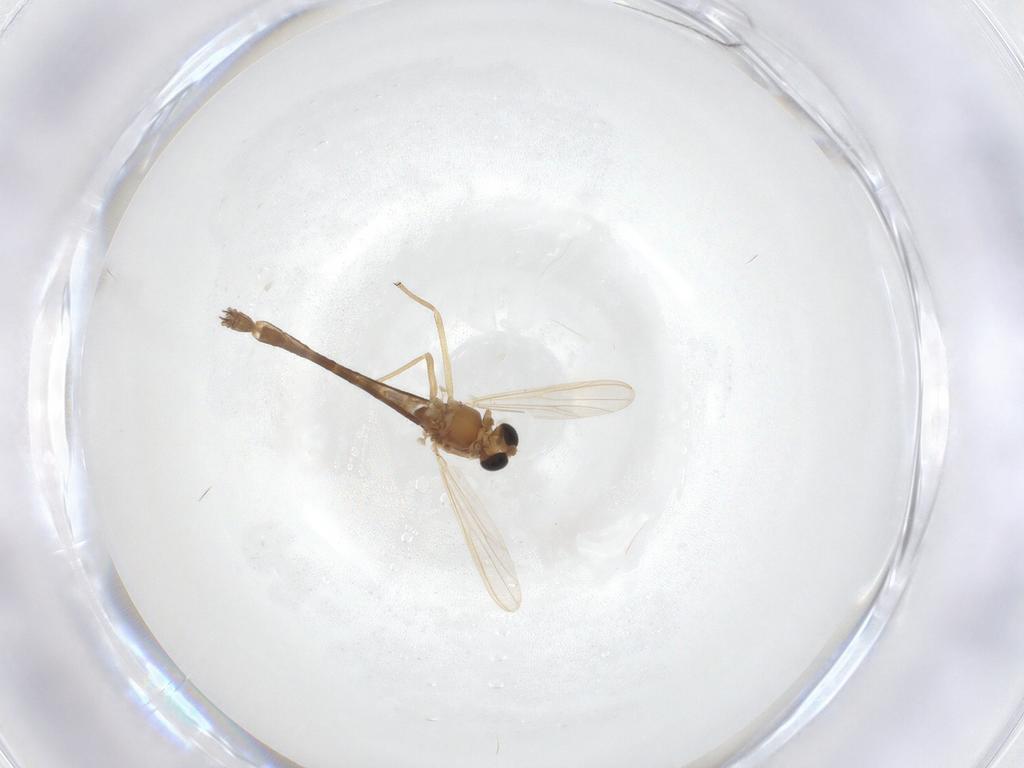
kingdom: Animalia
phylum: Arthropoda
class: Insecta
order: Diptera
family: Chironomidae
